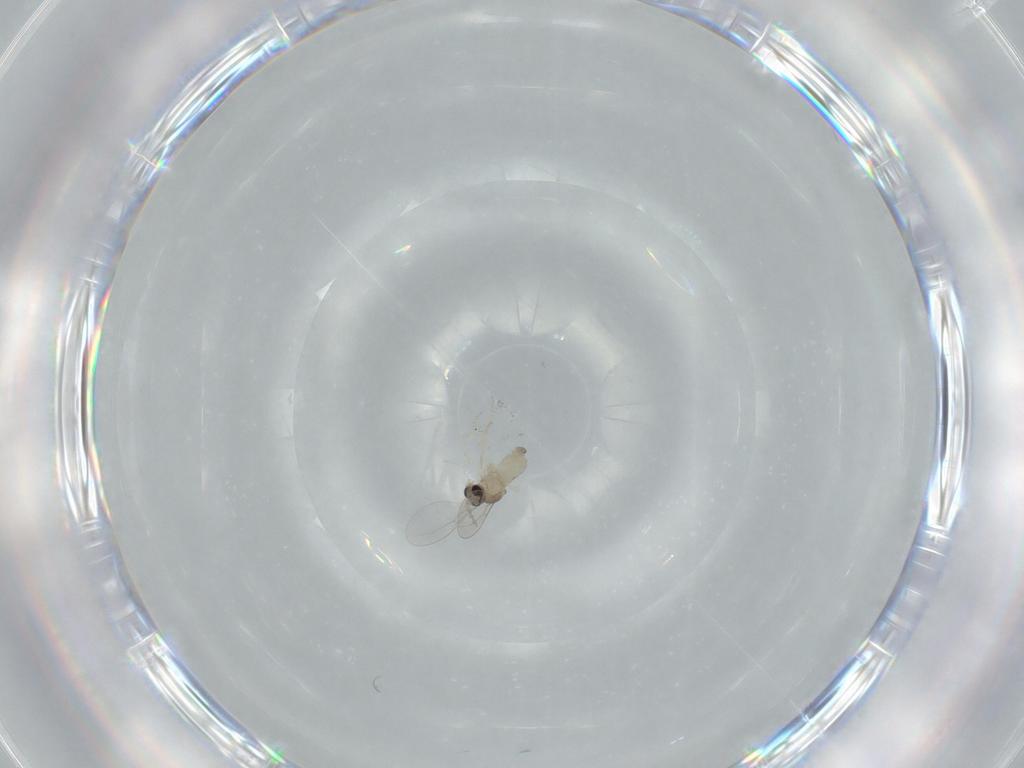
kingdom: Animalia
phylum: Arthropoda
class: Insecta
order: Diptera
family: Cecidomyiidae
